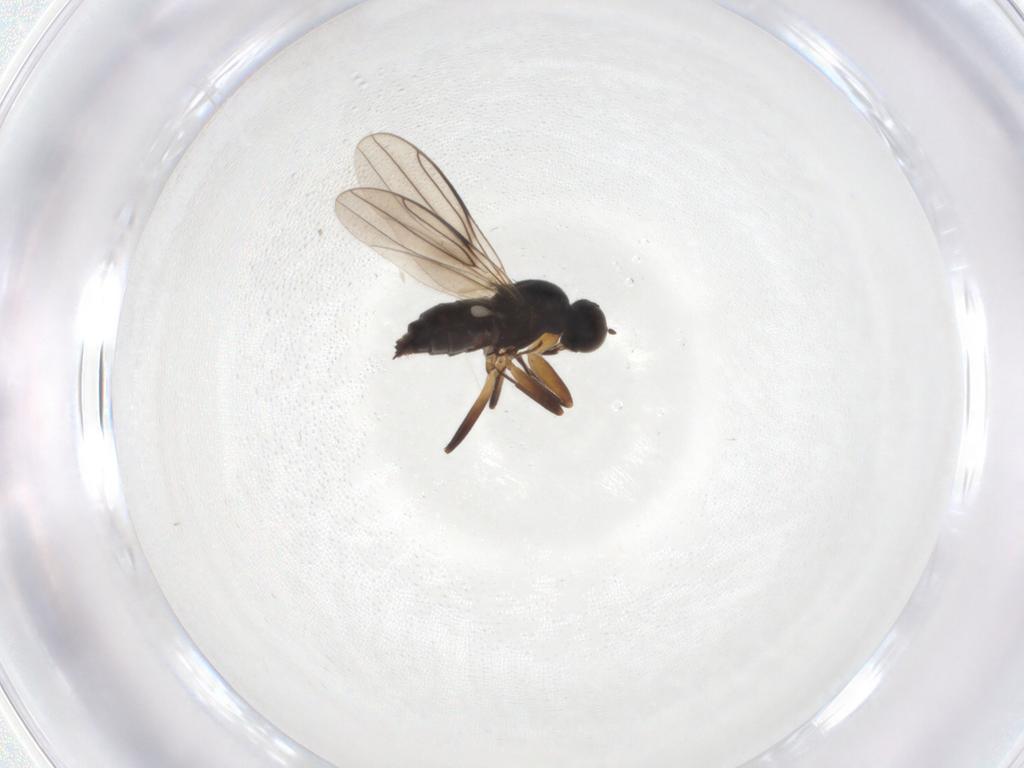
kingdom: Animalia
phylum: Arthropoda
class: Insecta
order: Diptera
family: Hybotidae
